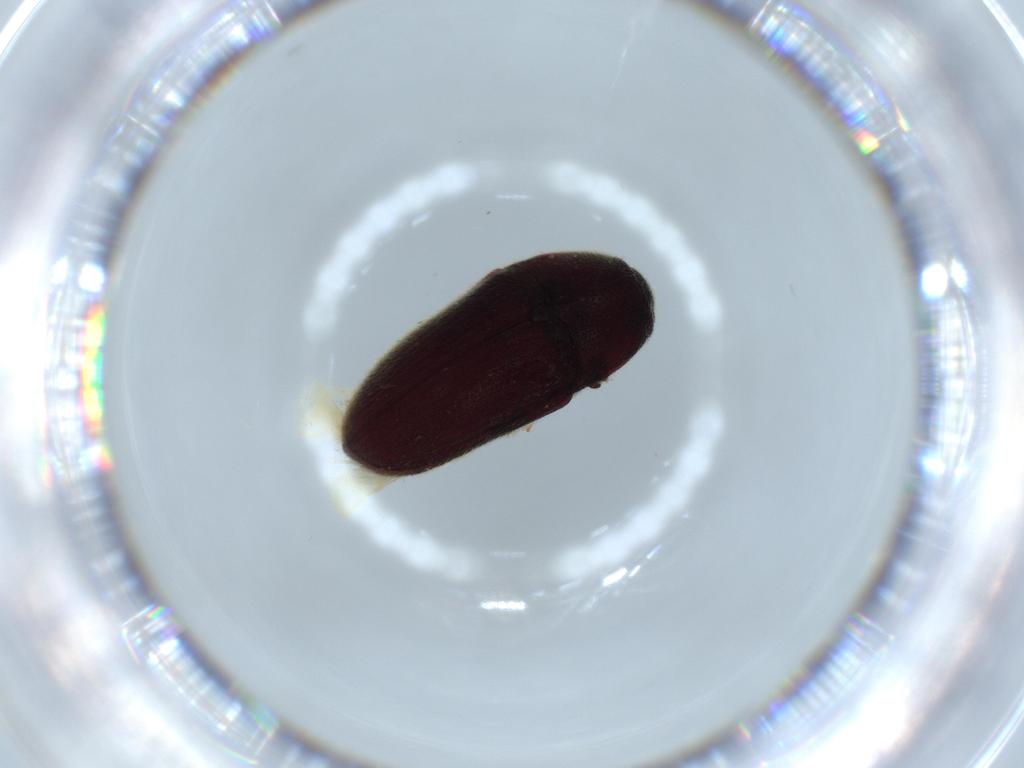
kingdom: Animalia
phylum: Arthropoda
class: Insecta
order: Coleoptera
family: Throscidae
